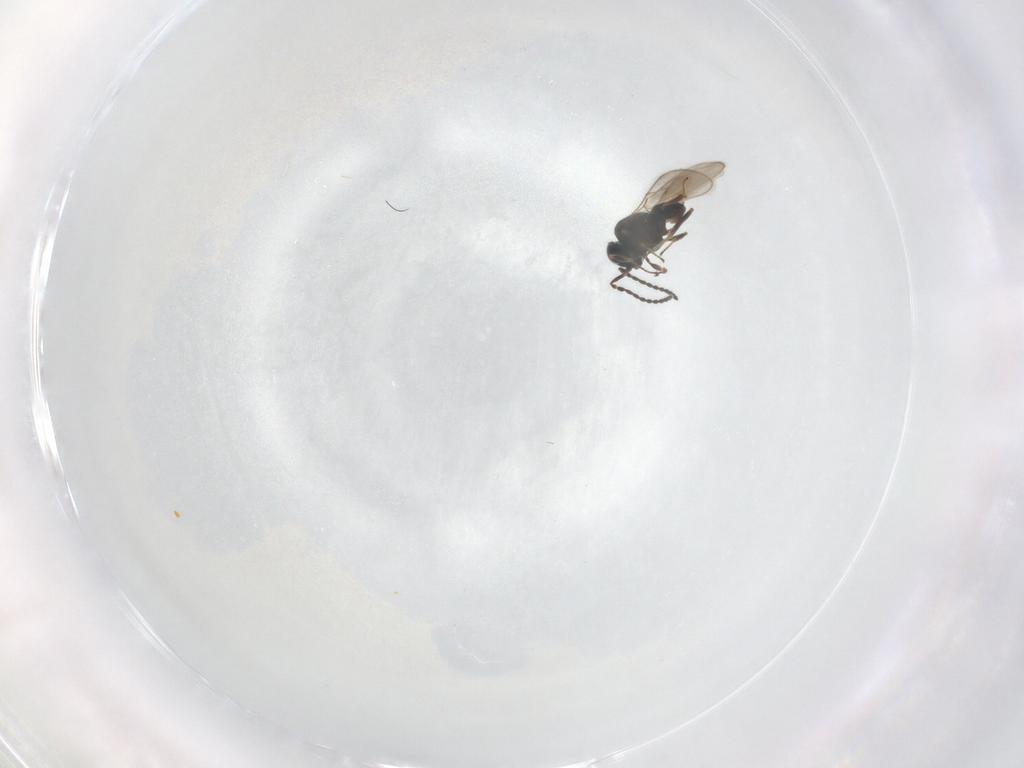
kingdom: Animalia
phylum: Arthropoda
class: Insecta
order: Hymenoptera
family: Scelionidae
